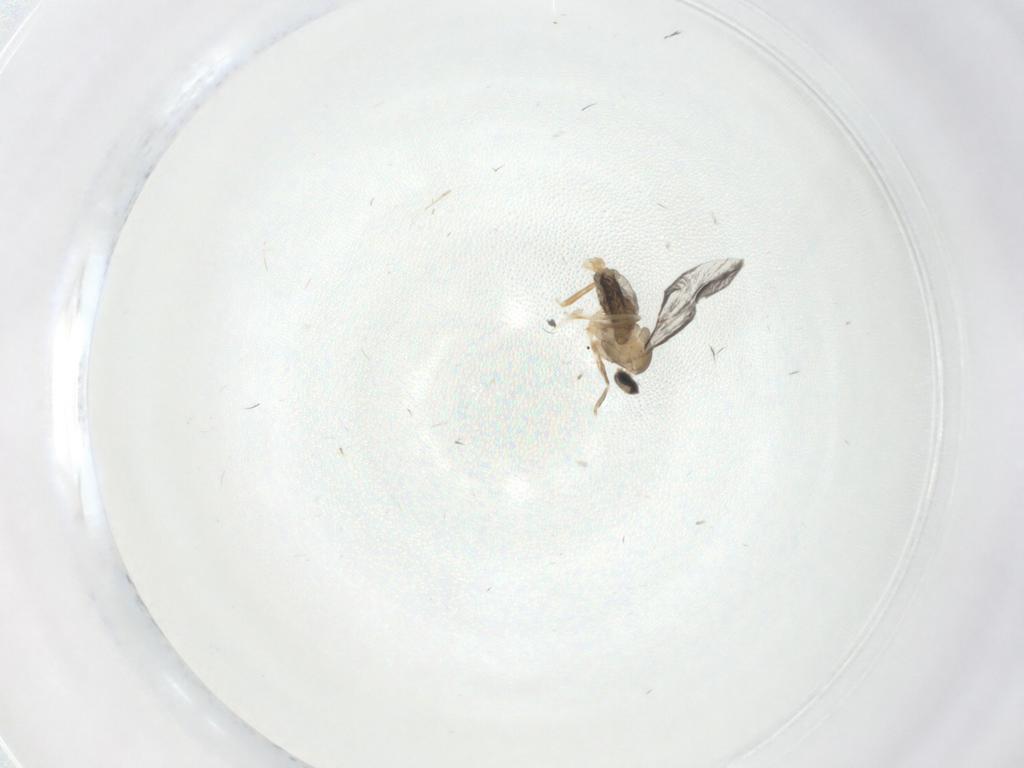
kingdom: Animalia
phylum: Arthropoda
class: Insecta
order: Diptera
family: Cecidomyiidae
